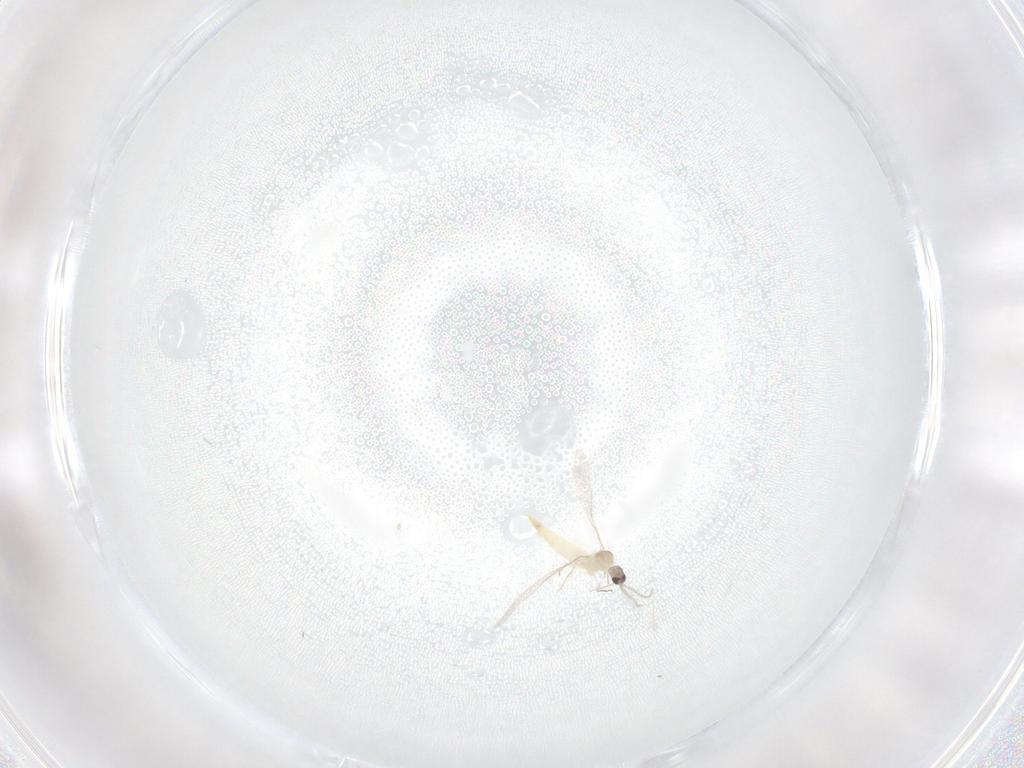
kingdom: Animalia
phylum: Arthropoda
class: Insecta
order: Diptera
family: Cecidomyiidae
